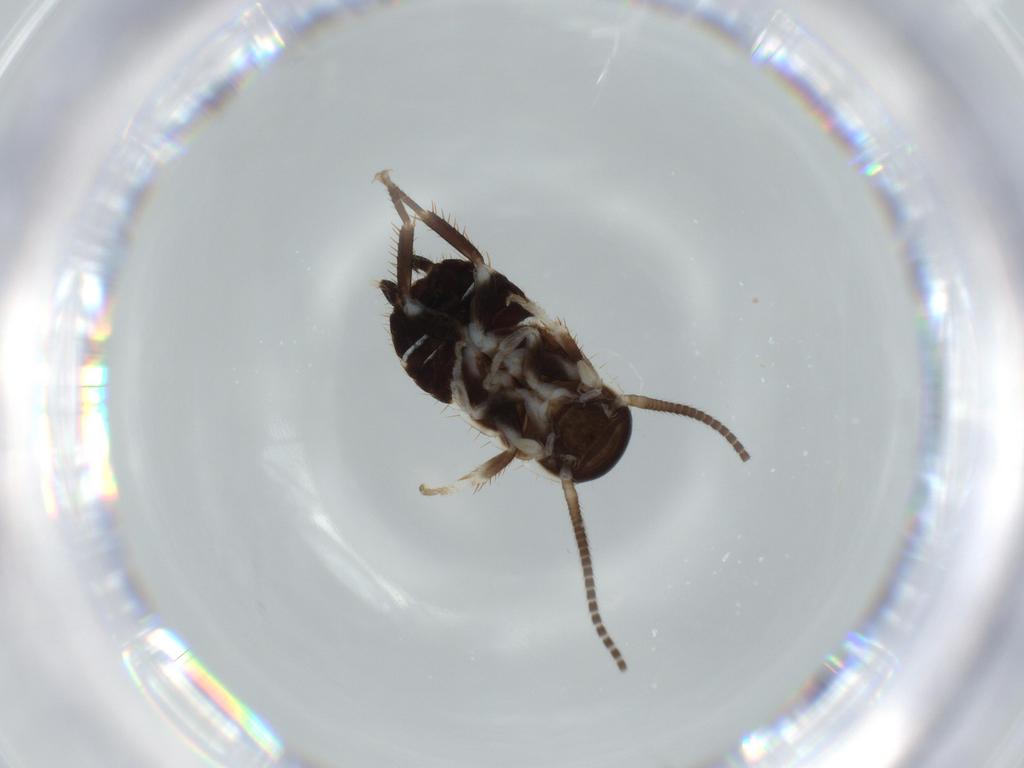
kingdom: Animalia
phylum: Arthropoda
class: Insecta
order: Blattodea
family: Ectobiidae
